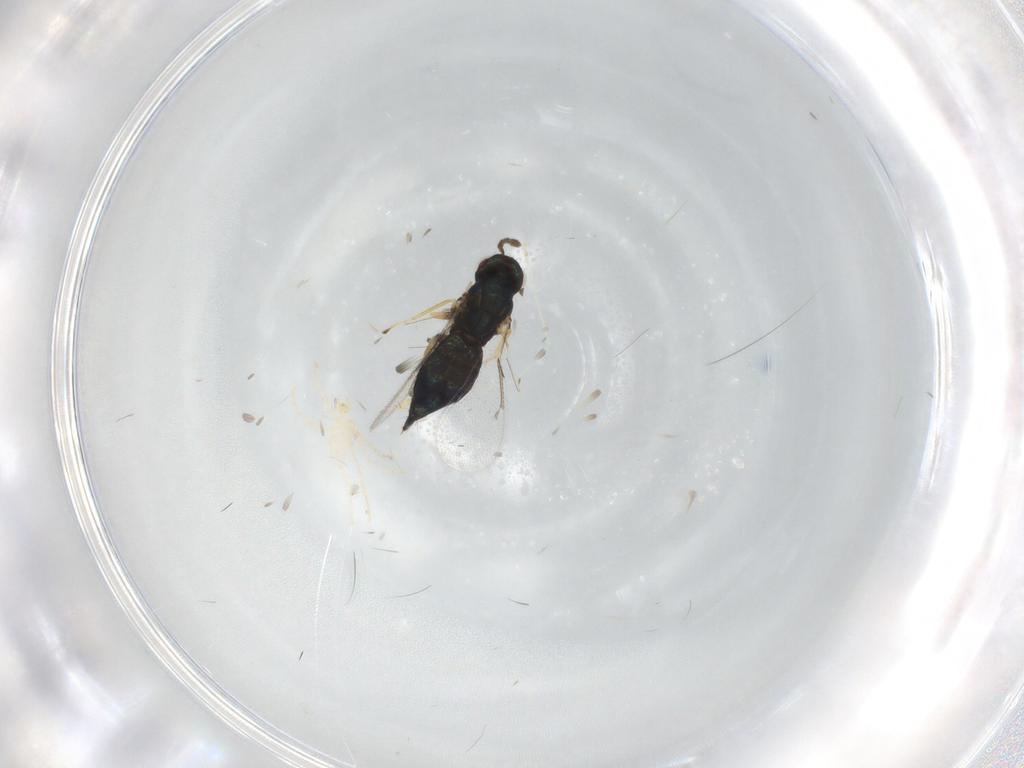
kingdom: Animalia
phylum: Arthropoda
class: Insecta
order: Hymenoptera
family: Eulophidae
